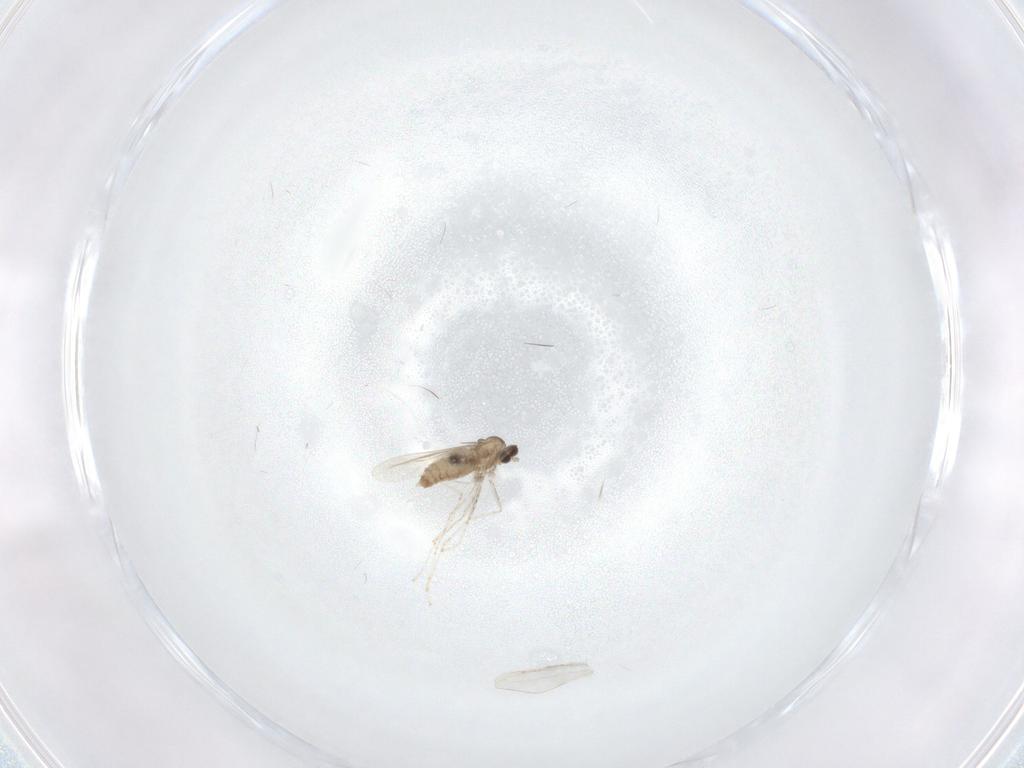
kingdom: Animalia
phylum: Arthropoda
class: Insecta
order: Diptera
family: Cecidomyiidae
